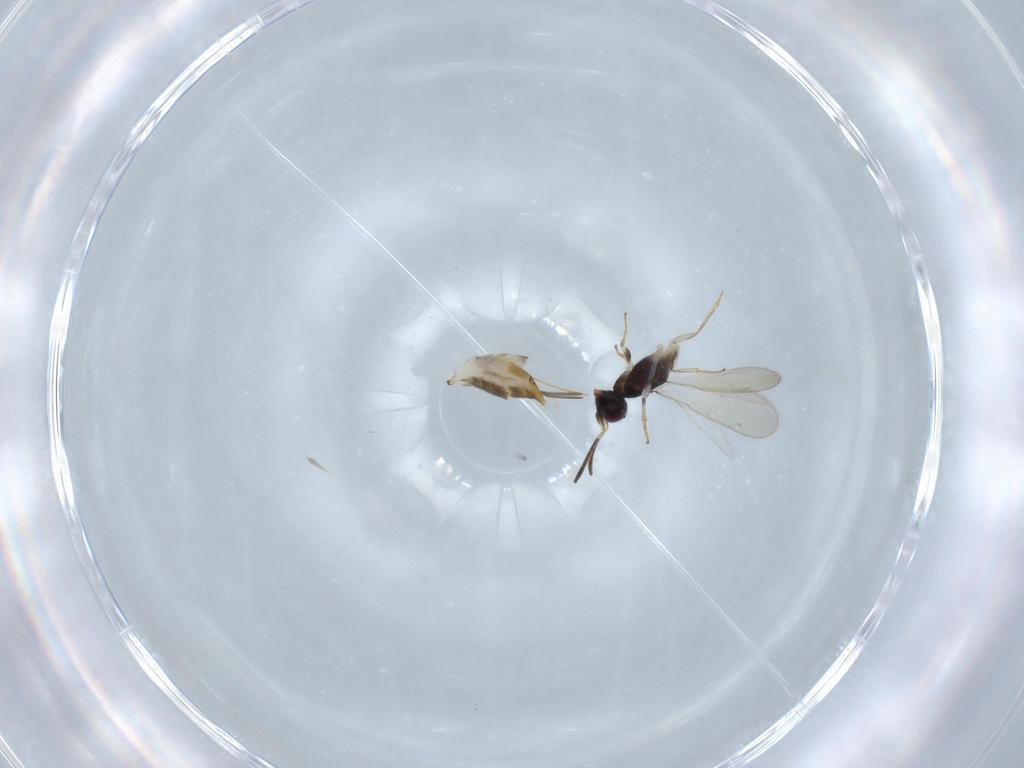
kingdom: Animalia
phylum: Arthropoda
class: Insecta
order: Hymenoptera
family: Eupelmidae
